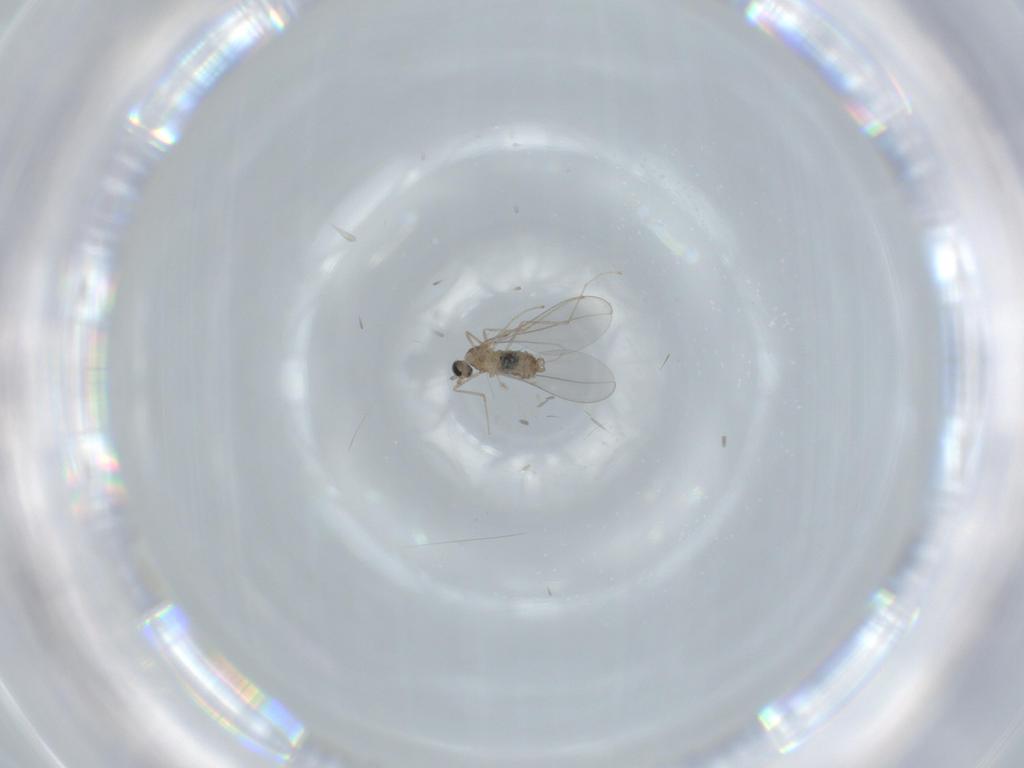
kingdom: Animalia
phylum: Arthropoda
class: Insecta
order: Diptera
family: Cecidomyiidae
